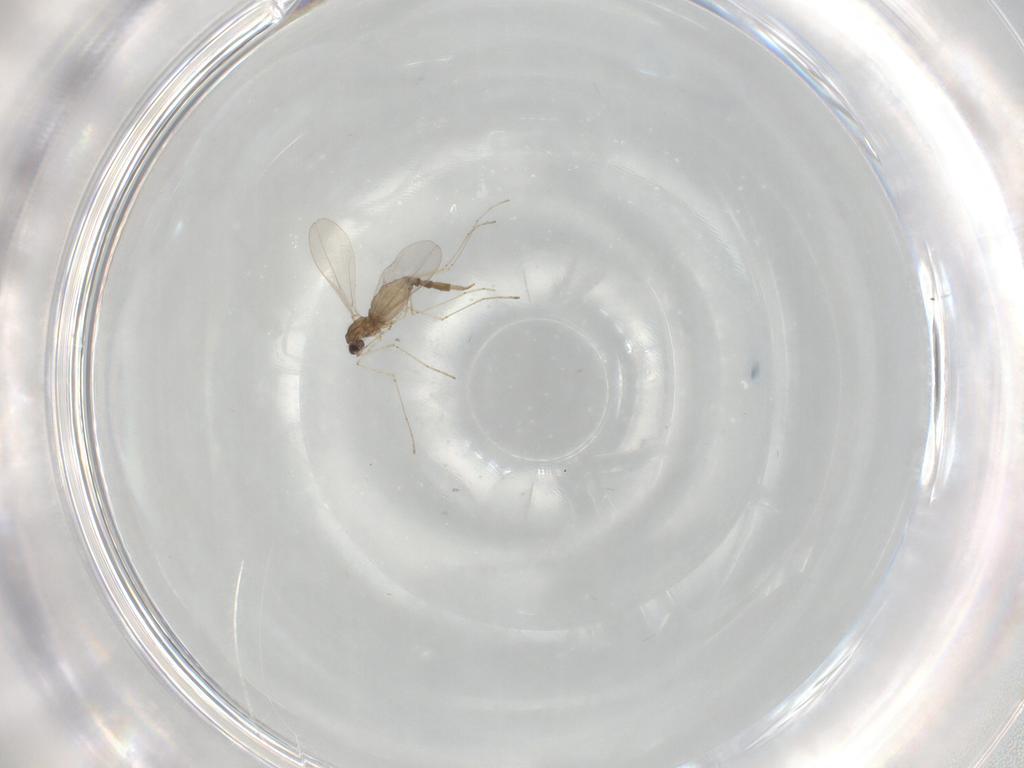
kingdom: Animalia
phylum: Arthropoda
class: Insecta
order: Diptera
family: Cecidomyiidae
